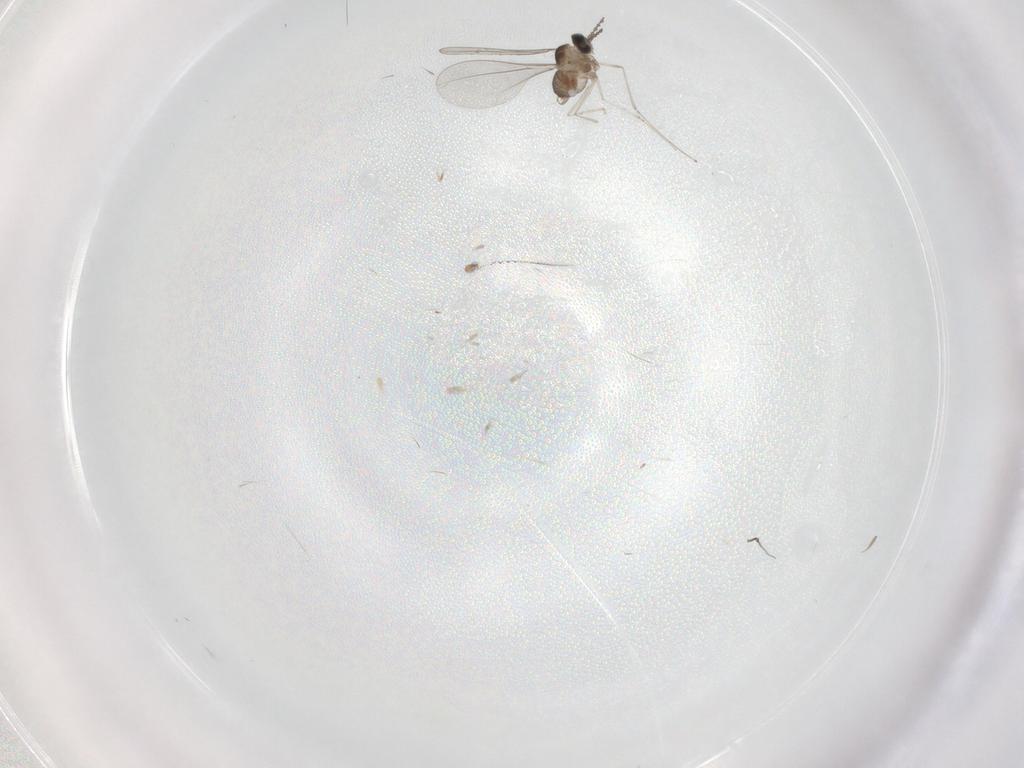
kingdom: Animalia
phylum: Arthropoda
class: Insecta
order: Diptera
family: Cecidomyiidae
